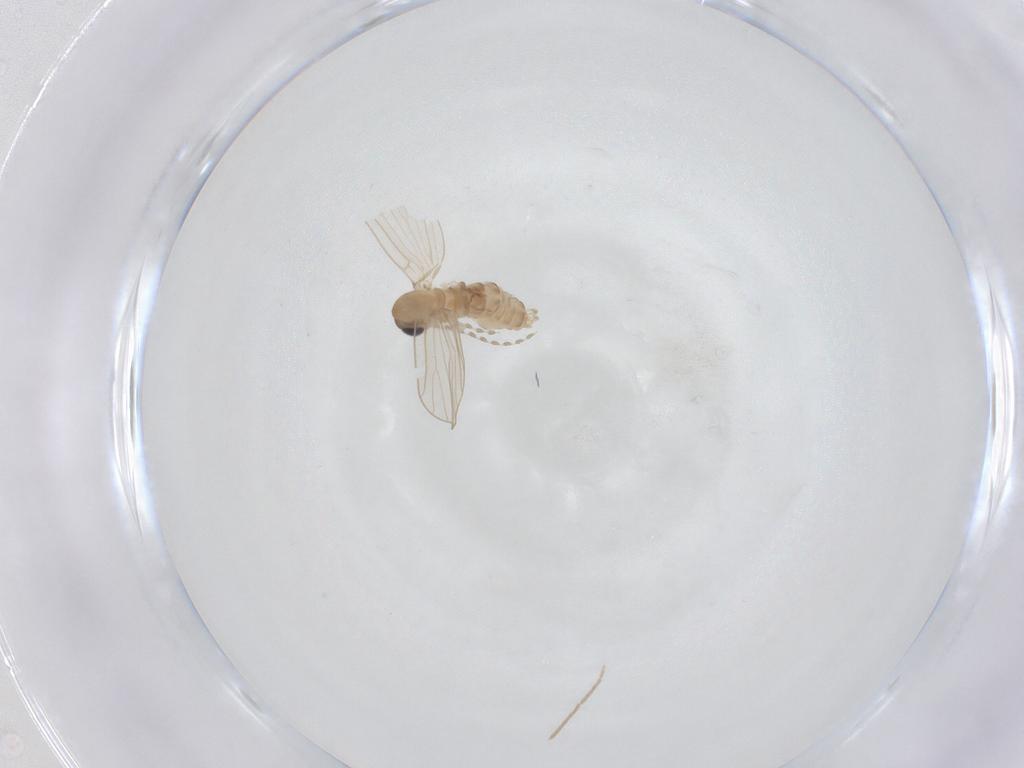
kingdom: Animalia
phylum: Arthropoda
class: Insecta
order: Diptera
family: Chironomidae
